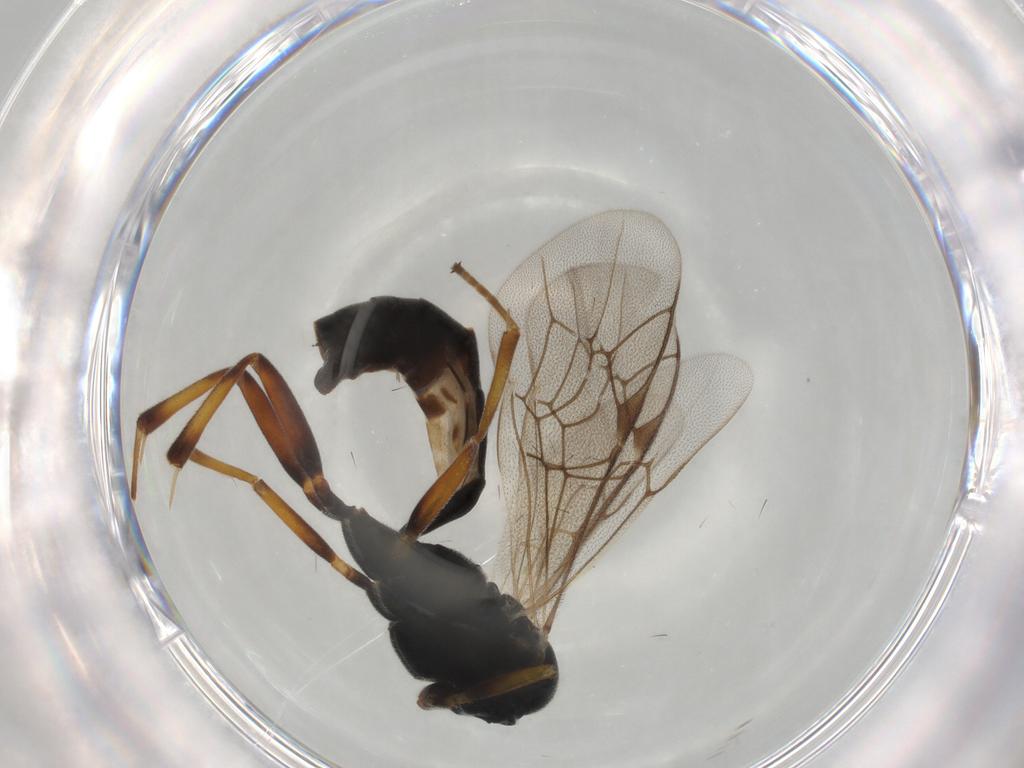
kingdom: Animalia
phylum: Arthropoda
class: Insecta
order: Hymenoptera
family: Ichneumonidae
